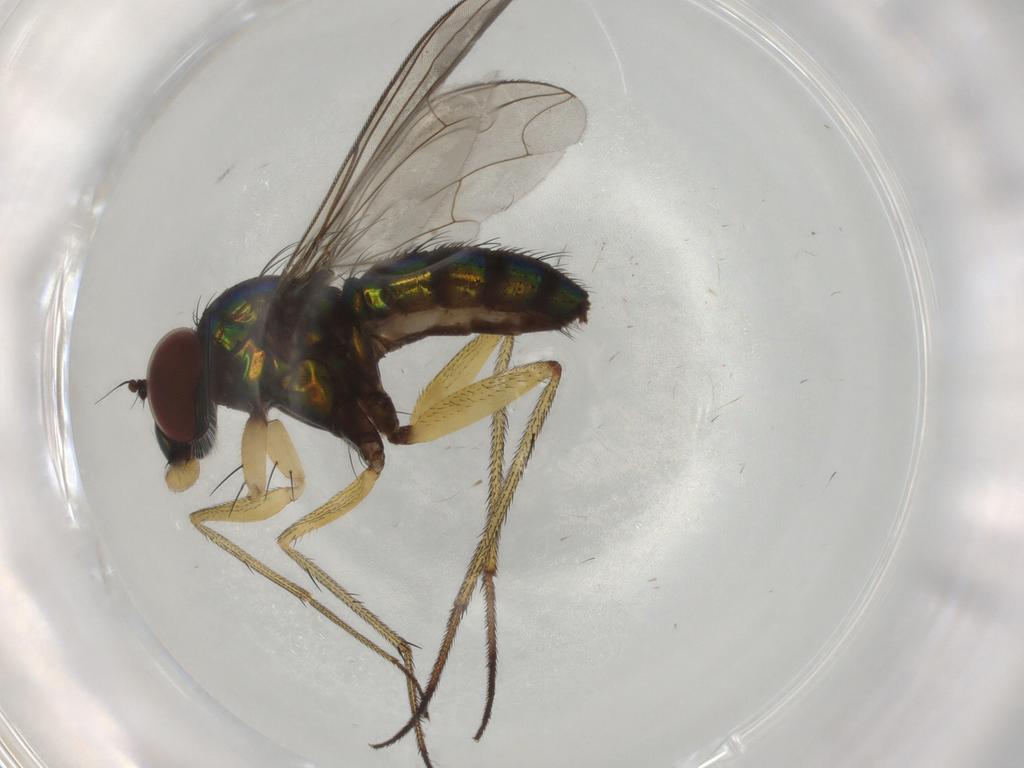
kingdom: Animalia
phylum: Arthropoda
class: Insecta
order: Diptera
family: Dolichopodidae
